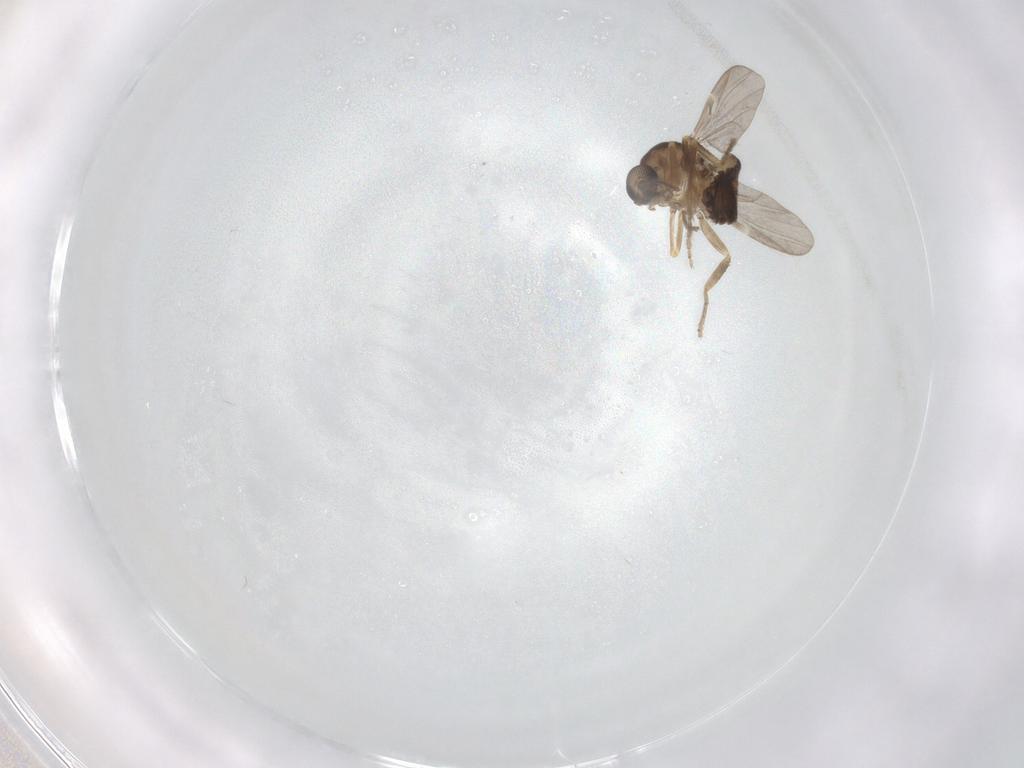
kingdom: Animalia
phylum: Arthropoda
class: Insecta
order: Diptera
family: Ceratopogonidae
